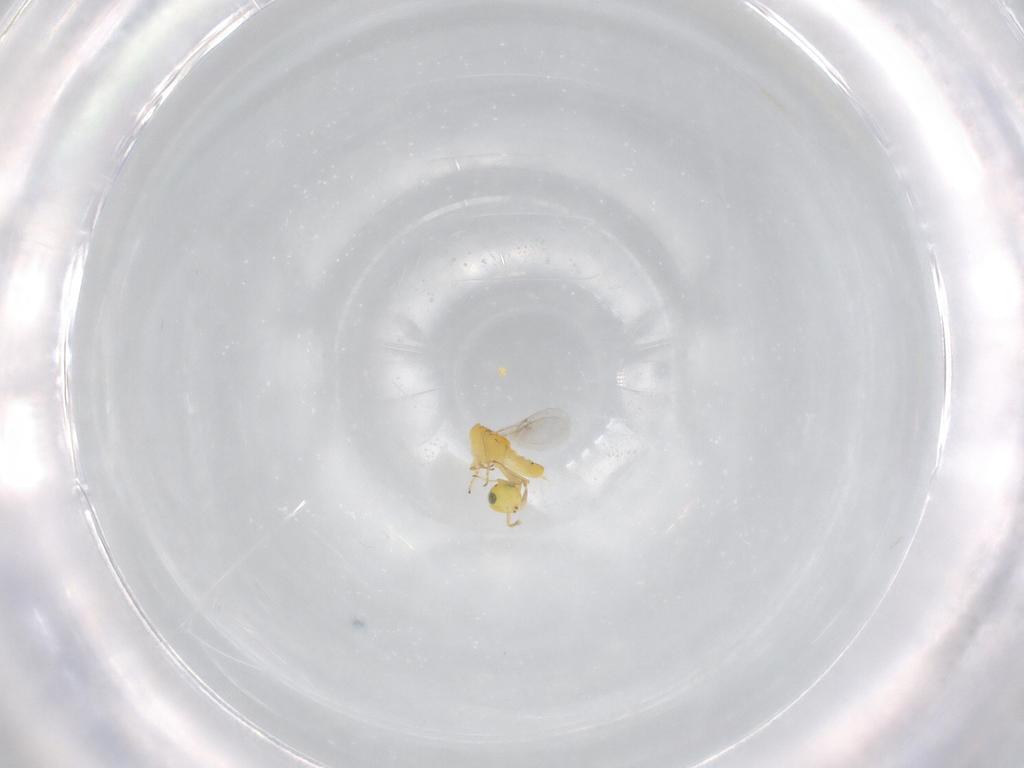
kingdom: Animalia
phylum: Arthropoda
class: Insecta
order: Hymenoptera
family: Encyrtidae
